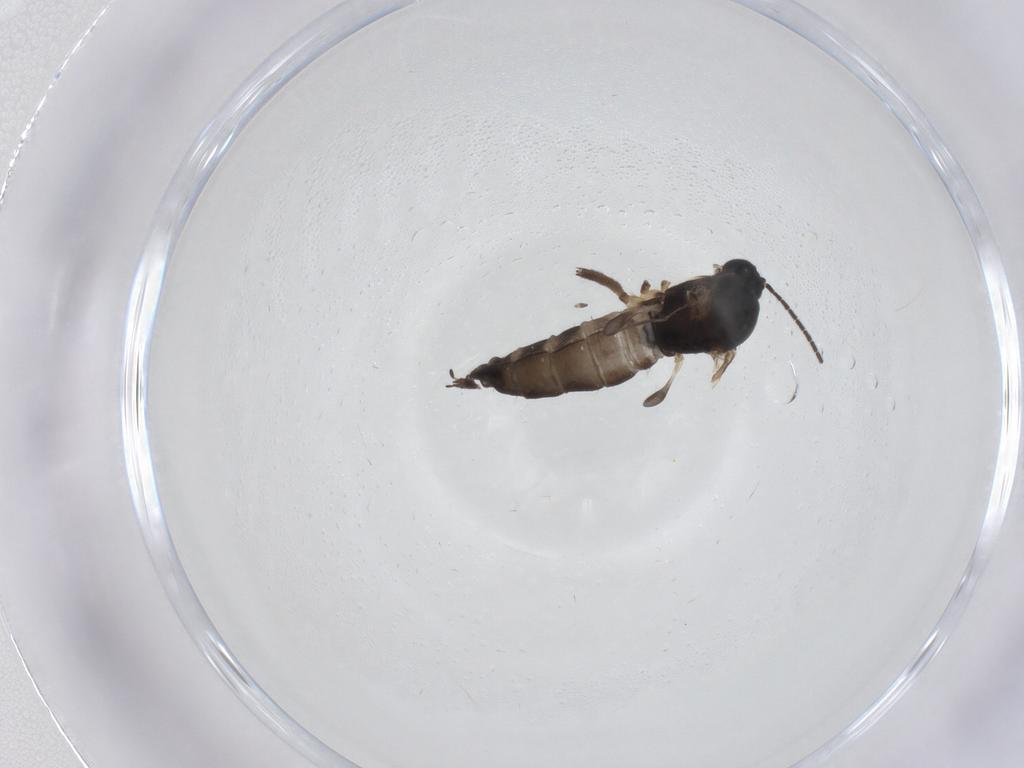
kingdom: Animalia
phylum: Arthropoda
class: Insecta
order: Diptera
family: Sciaridae
